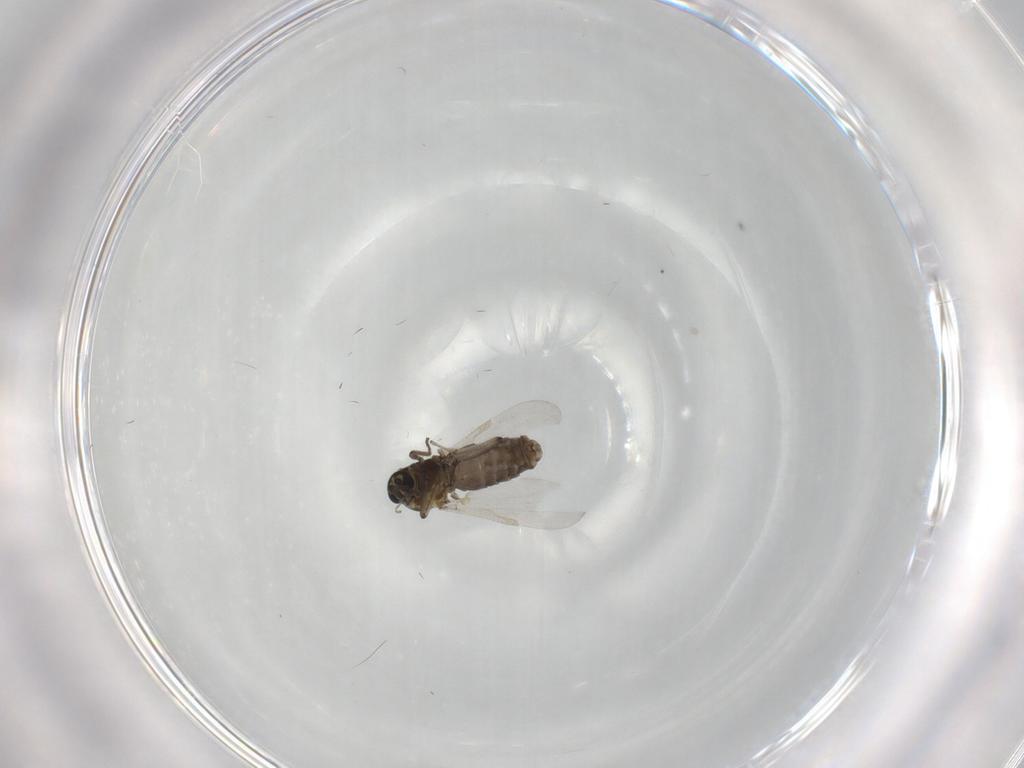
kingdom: Animalia
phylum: Arthropoda
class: Insecta
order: Diptera
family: Ceratopogonidae
